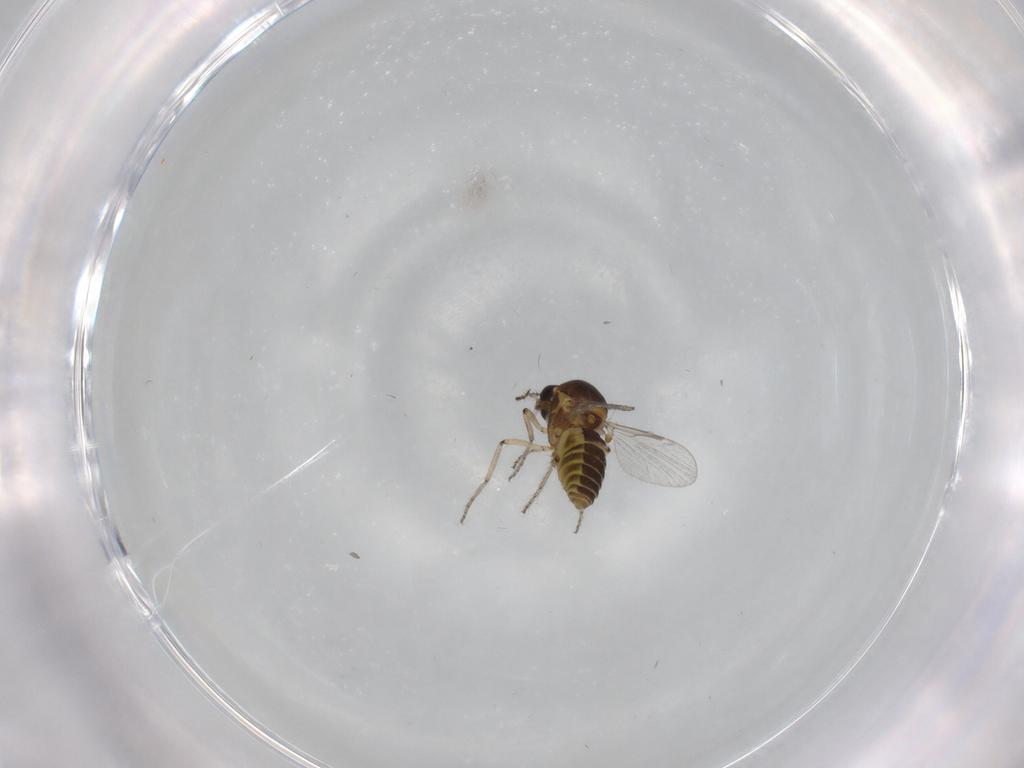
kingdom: Animalia
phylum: Arthropoda
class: Insecta
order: Diptera
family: Ceratopogonidae
